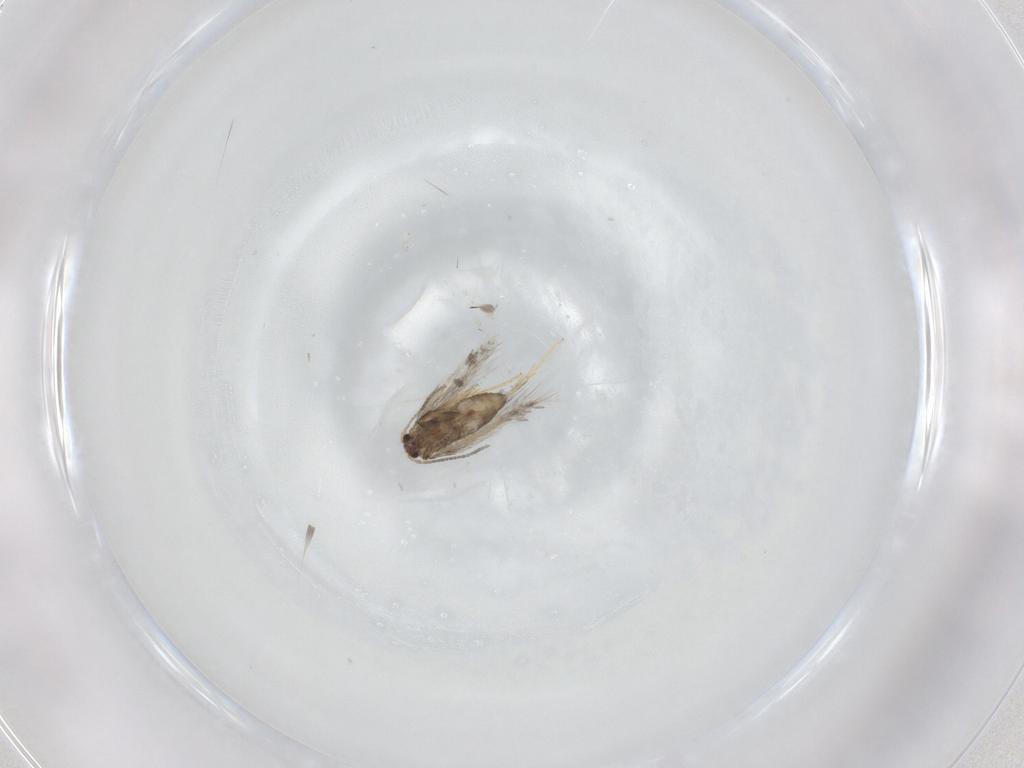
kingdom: Animalia
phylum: Arthropoda
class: Insecta
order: Lepidoptera
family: Nepticulidae
